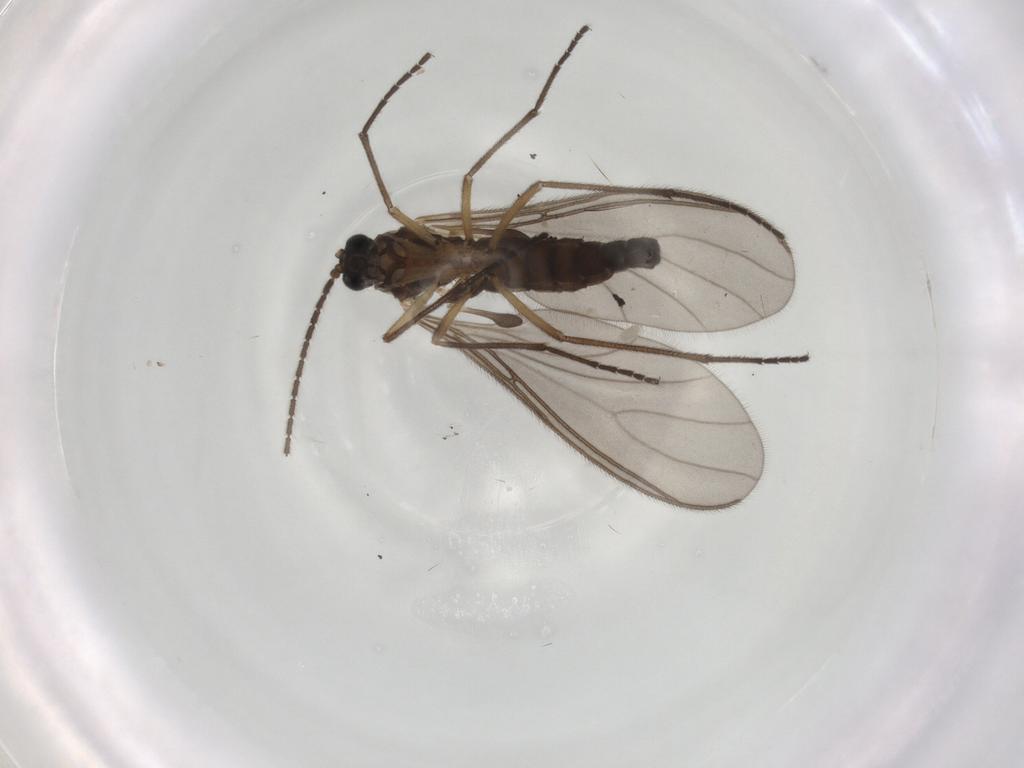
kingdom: Animalia
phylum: Arthropoda
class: Insecta
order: Diptera
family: Sciaridae
